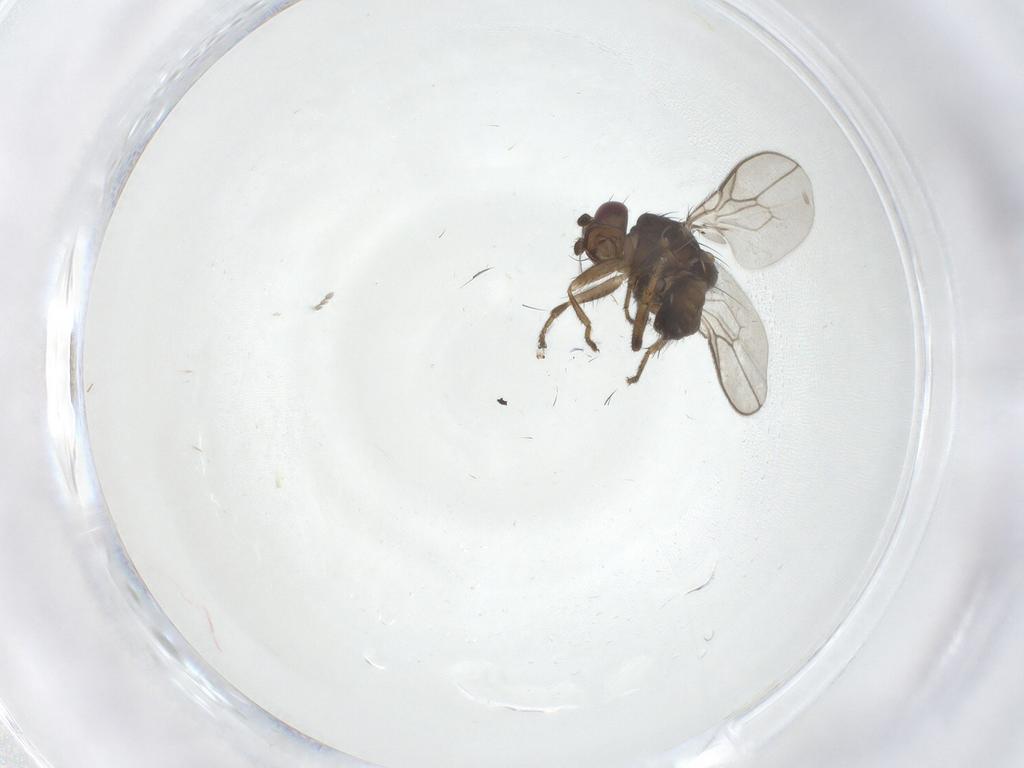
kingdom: Animalia
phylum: Arthropoda
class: Insecta
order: Diptera
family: Sphaeroceridae
